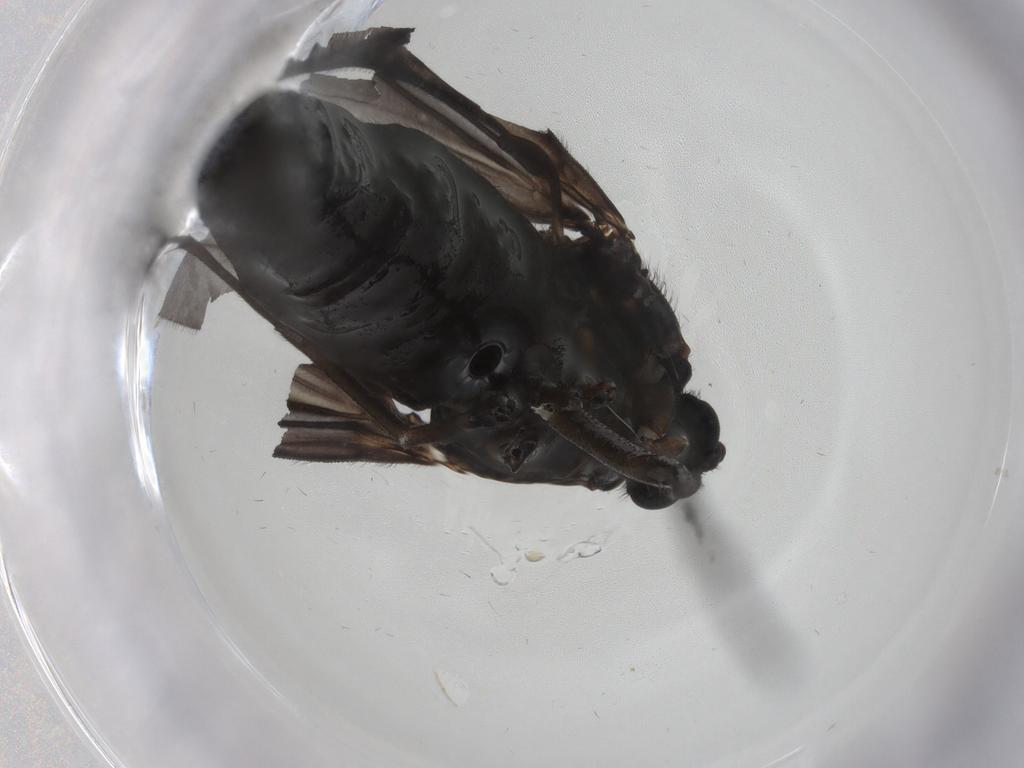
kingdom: Animalia
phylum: Arthropoda
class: Insecta
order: Diptera
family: Sciaridae
